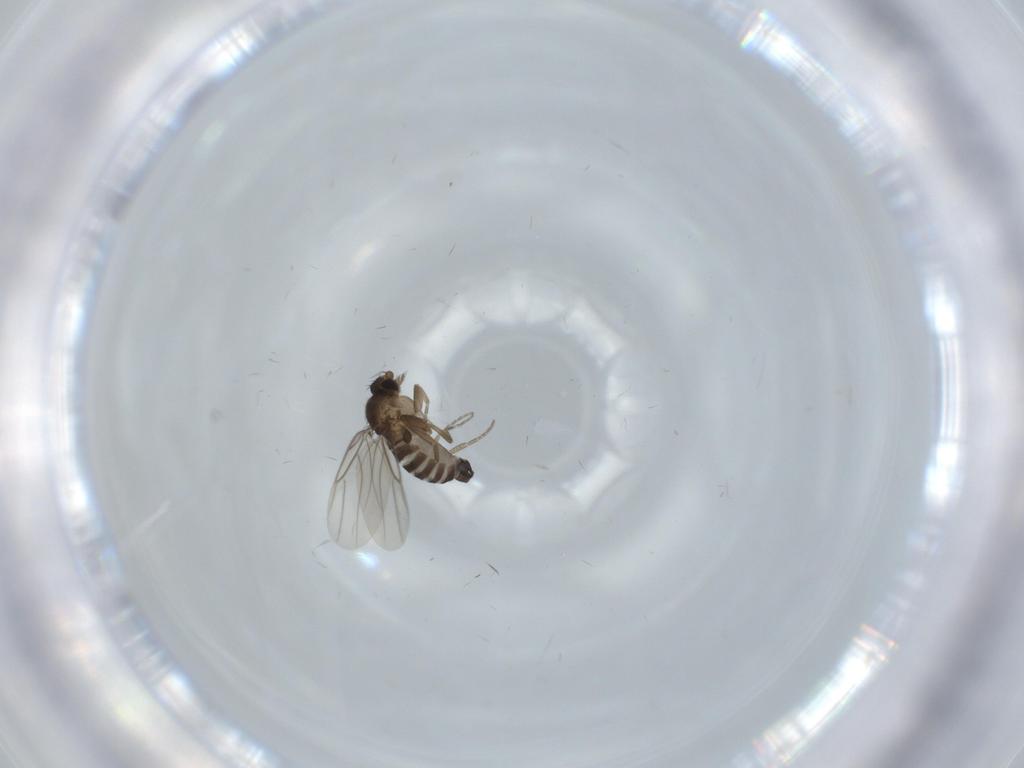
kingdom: Animalia
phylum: Arthropoda
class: Insecta
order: Diptera
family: Phoridae
